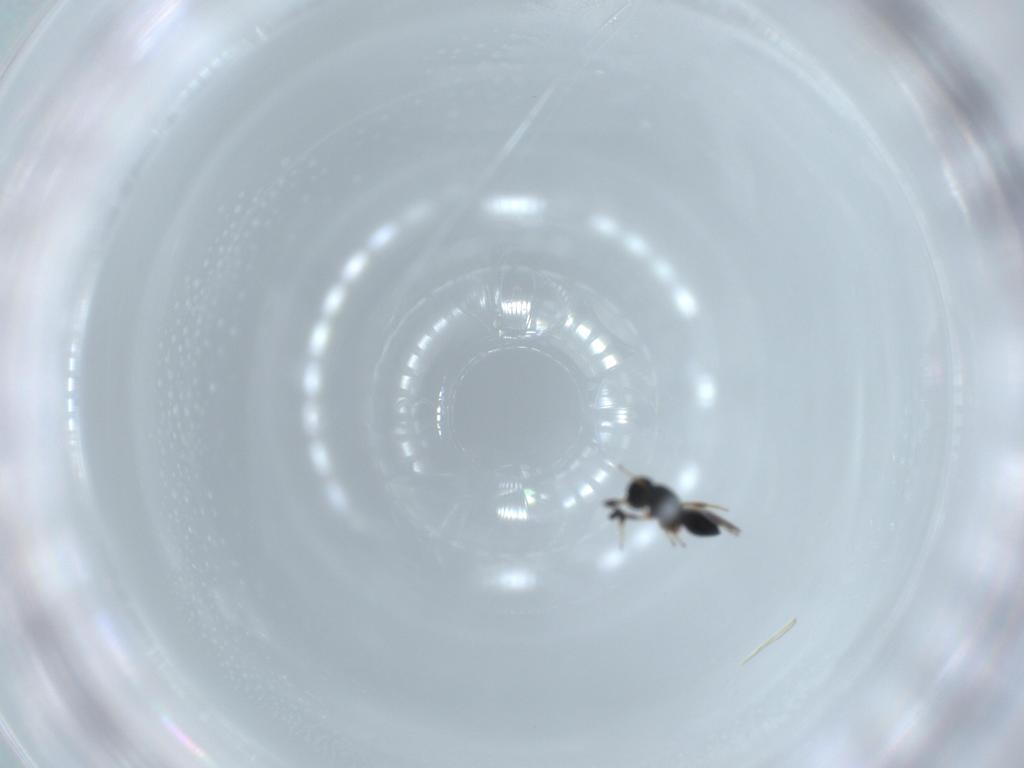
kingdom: Animalia
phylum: Arthropoda
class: Insecta
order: Hymenoptera
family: Scelionidae
